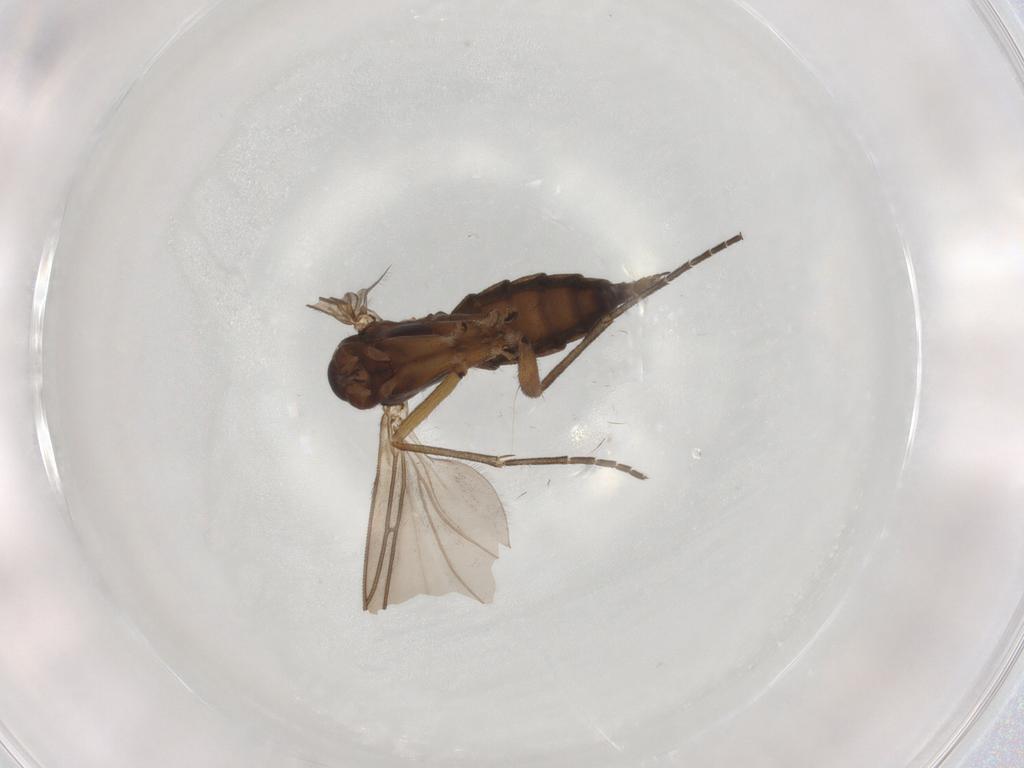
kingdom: Animalia
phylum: Arthropoda
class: Insecta
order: Diptera
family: Sciaridae
